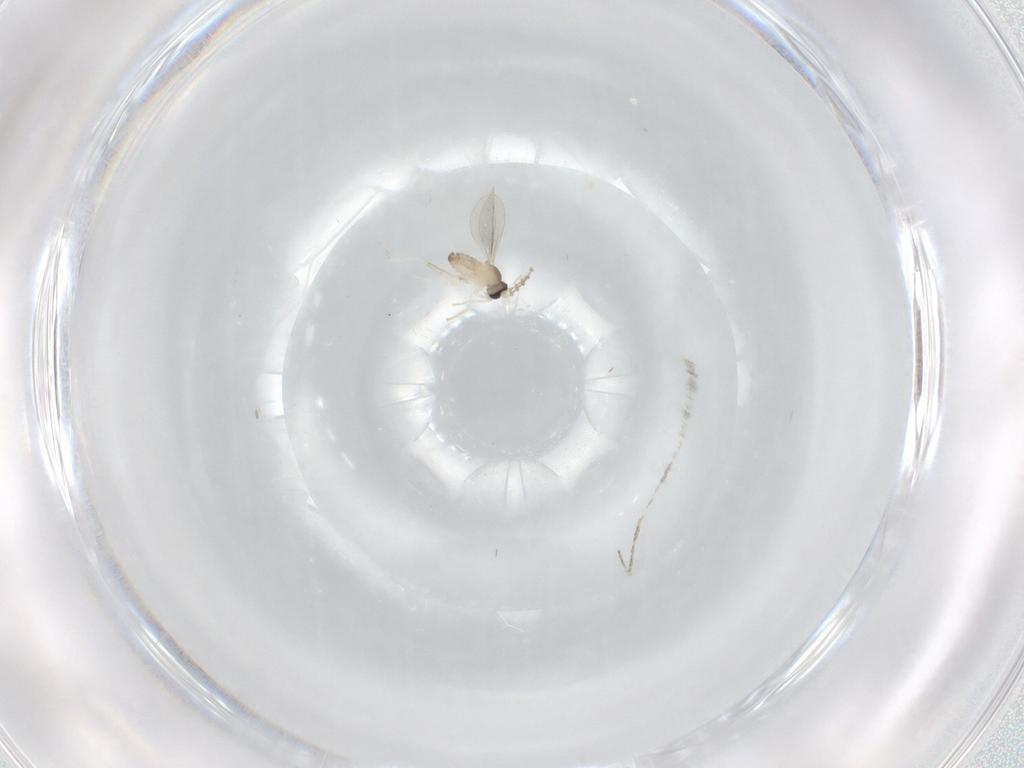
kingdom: Animalia
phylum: Arthropoda
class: Insecta
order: Diptera
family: Cecidomyiidae
